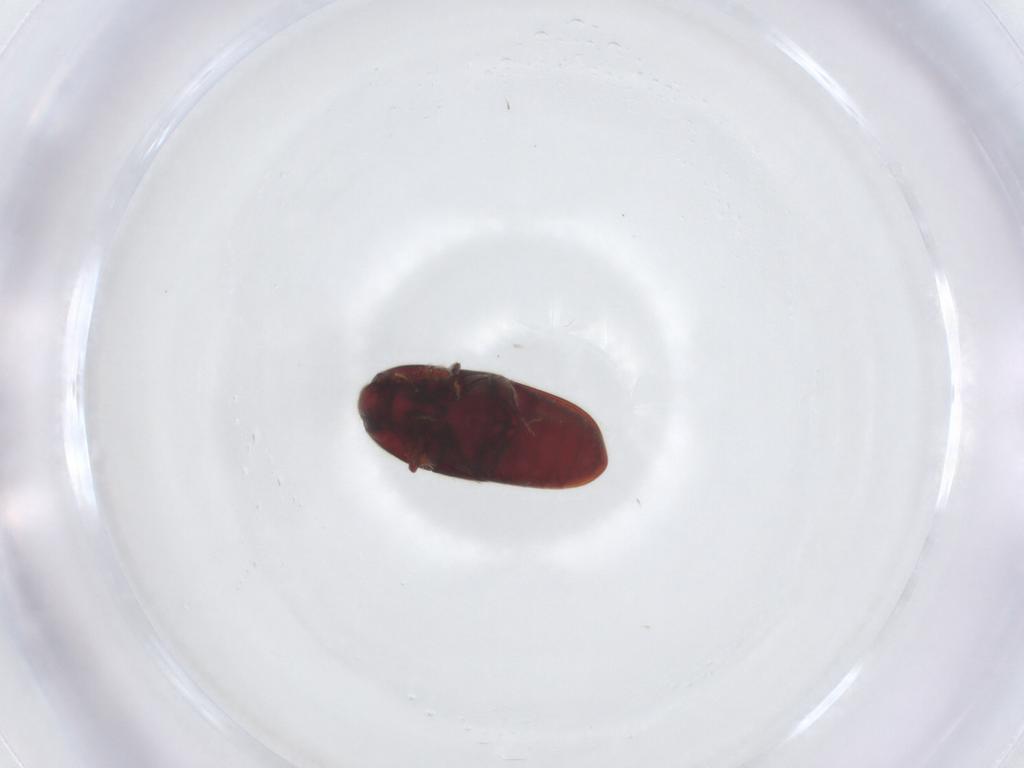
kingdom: Animalia
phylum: Arthropoda
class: Insecta
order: Coleoptera
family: Throscidae
